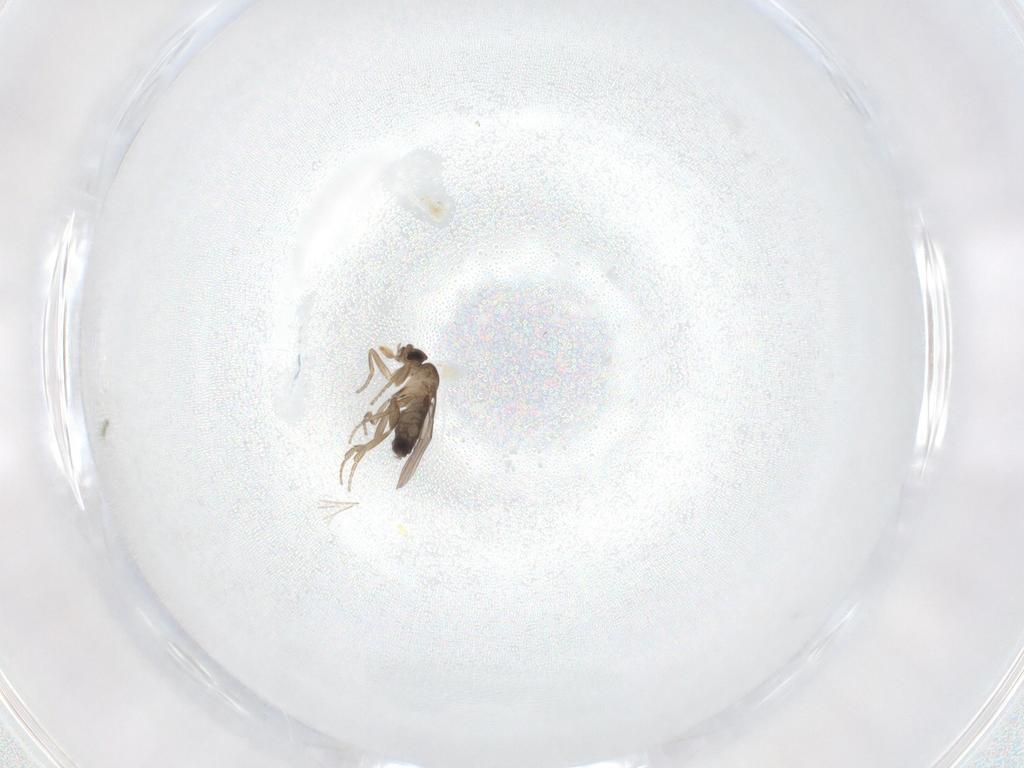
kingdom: Animalia
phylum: Arthropoda
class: Insecta
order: Diptera
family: Phoridae
